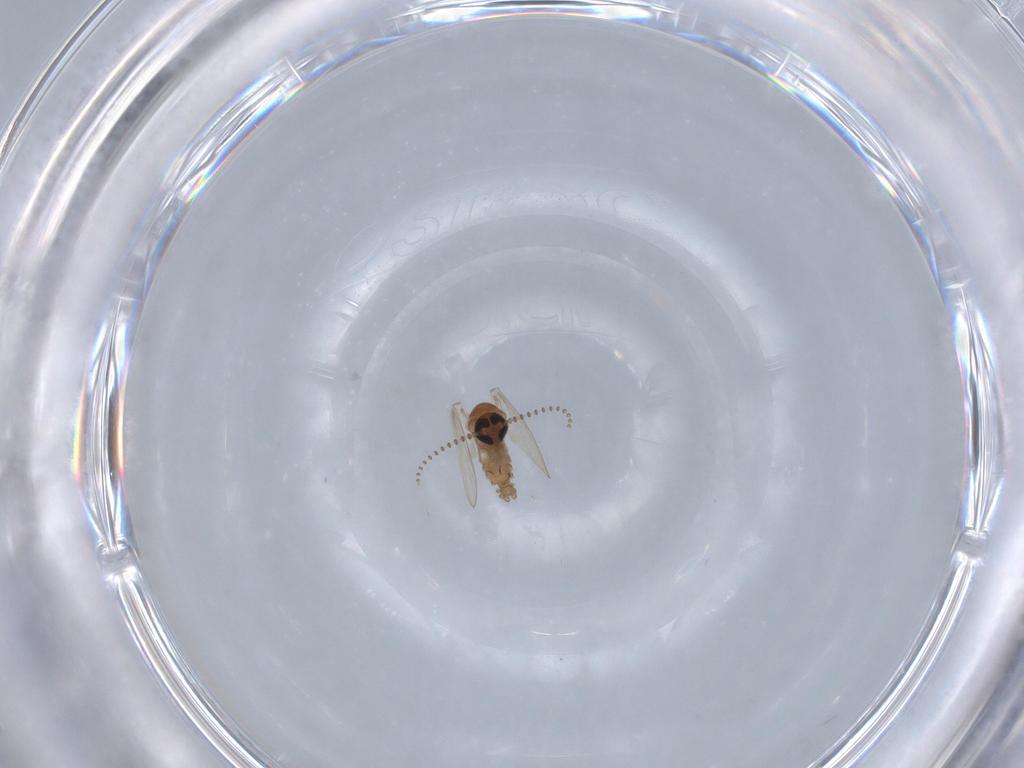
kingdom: Animalia
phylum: Arthropoda
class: Insecta
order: Diptera
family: Phoridae
